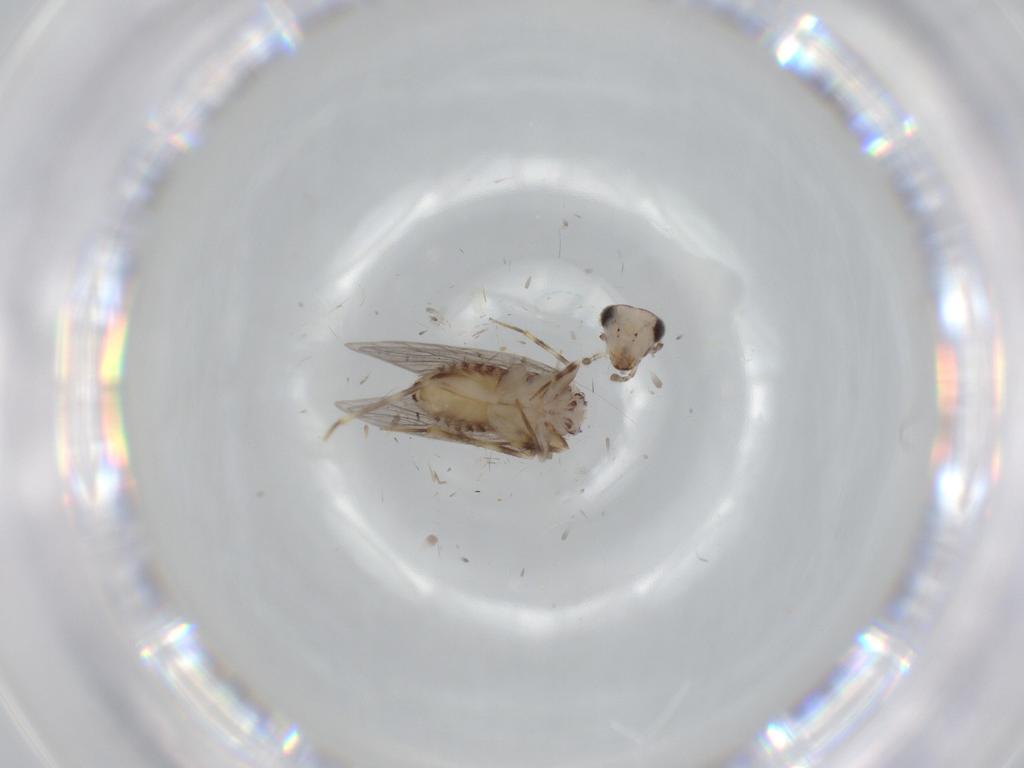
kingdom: Animalia
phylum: Arthropoda
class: Insecta
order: Psocodea
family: Lepidopsocidae
